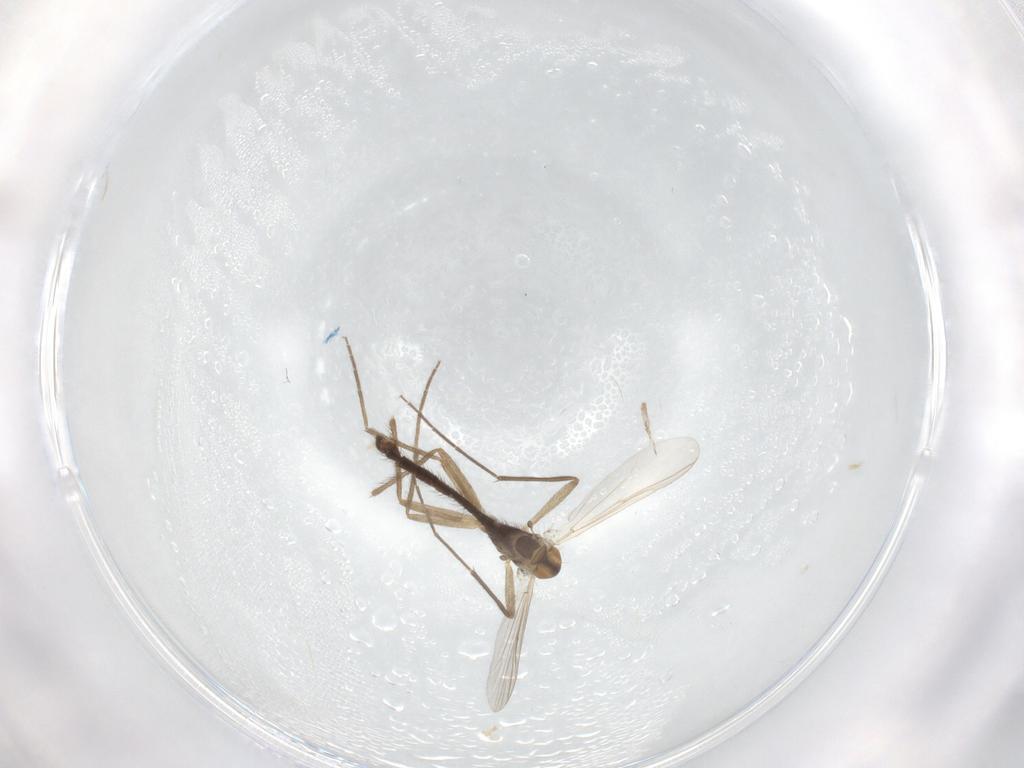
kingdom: Animalia
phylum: Arthropoda
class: Insecta
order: Diptera
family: Chironomidae
